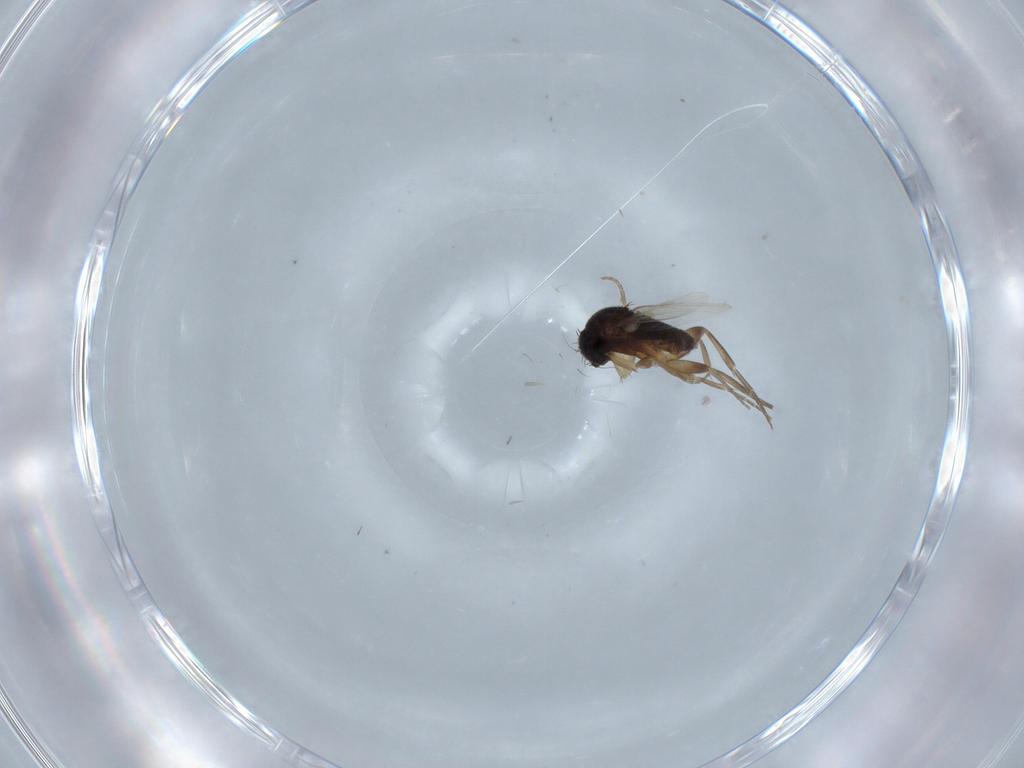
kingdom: Animalia
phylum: Arthropoda
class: Insecta
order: Diptera
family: Phoridae
